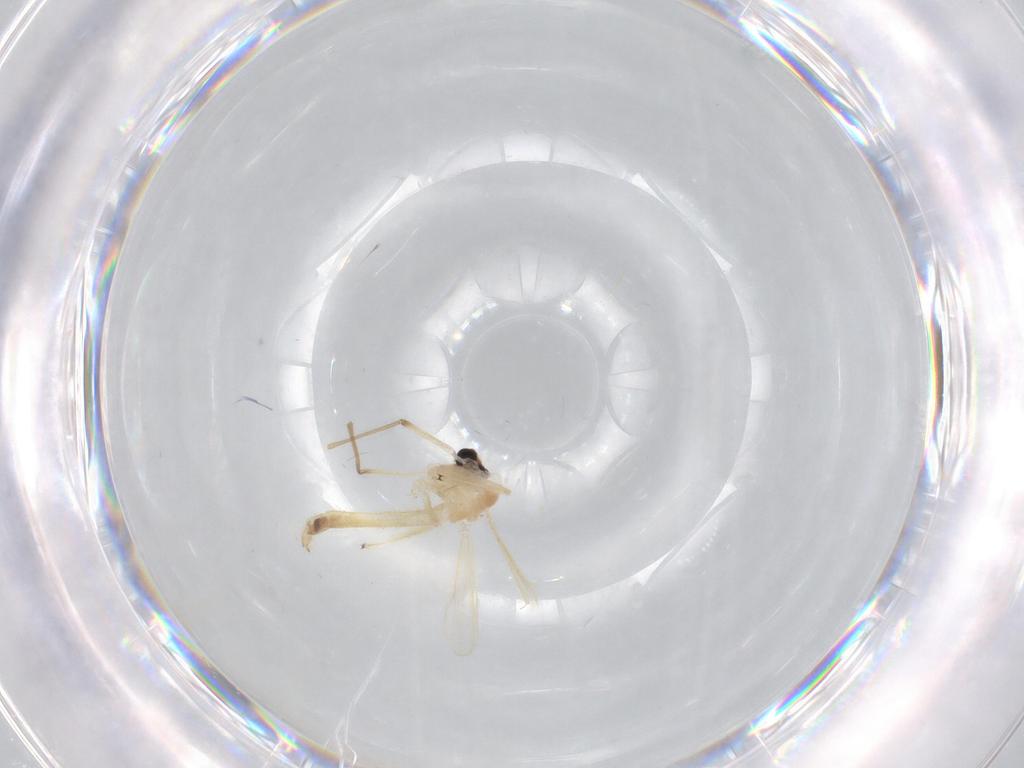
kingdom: Animalia
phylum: Arthropoda
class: Insecta
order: Diptera
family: Chironomidae
